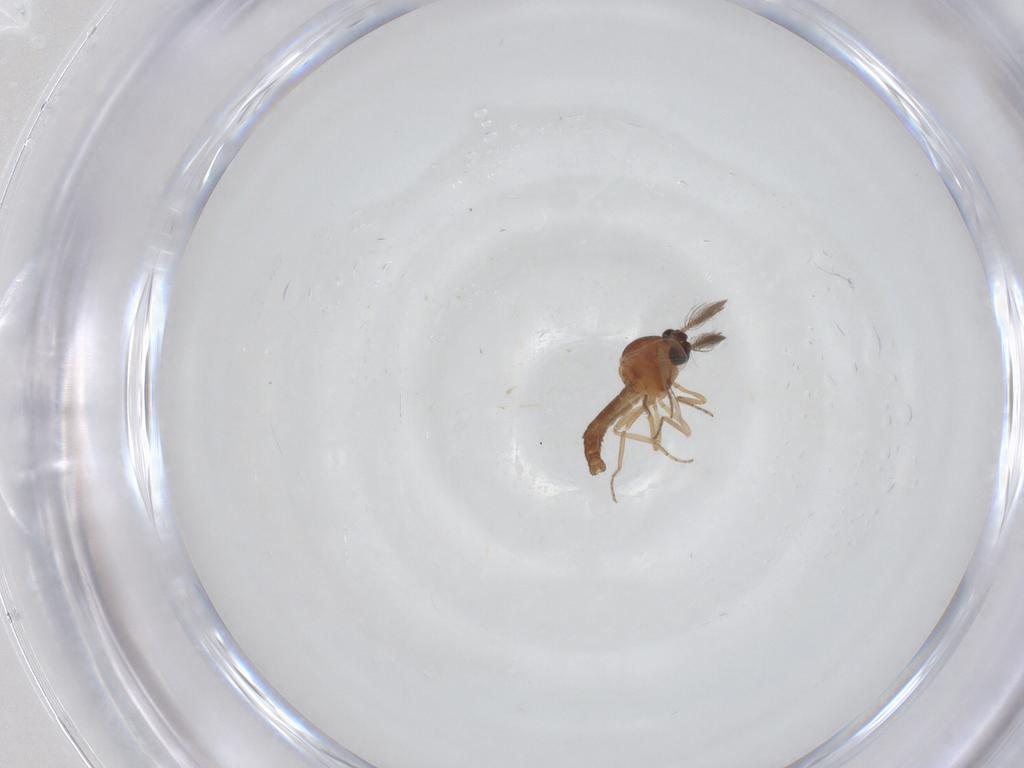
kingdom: Animalia
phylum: Arthropoda
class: Insecta
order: Diptera
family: Ceratopogonidae
